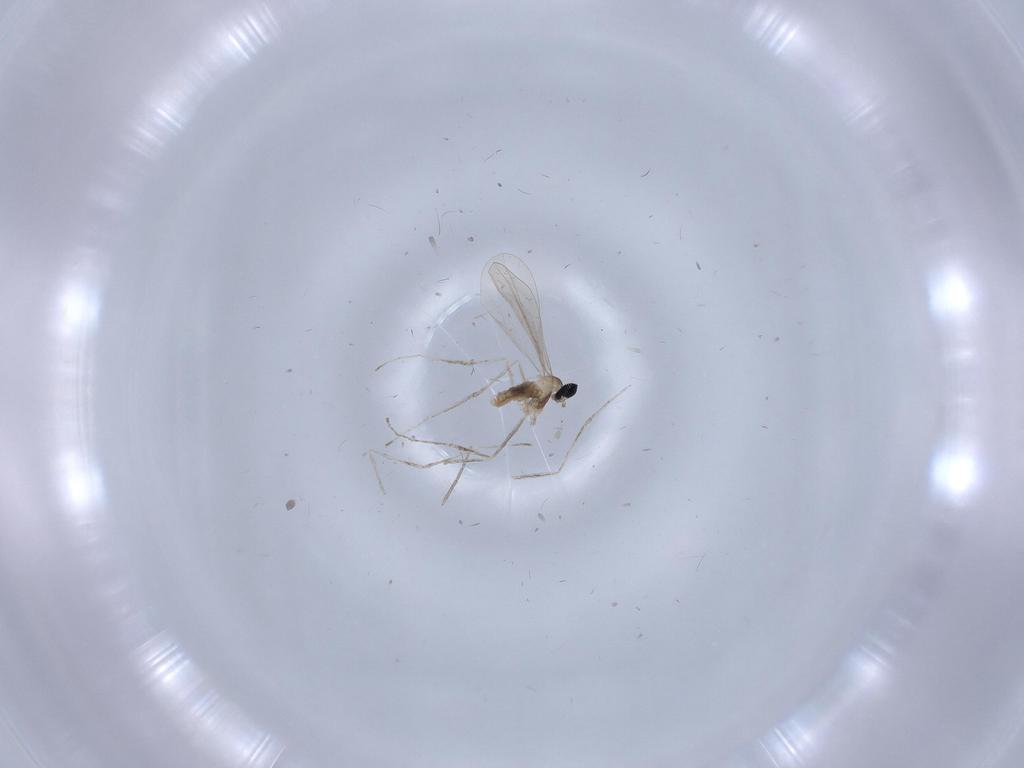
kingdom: Animalia
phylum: Arthropoda
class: Insecta
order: Diptera
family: Chironomidae
